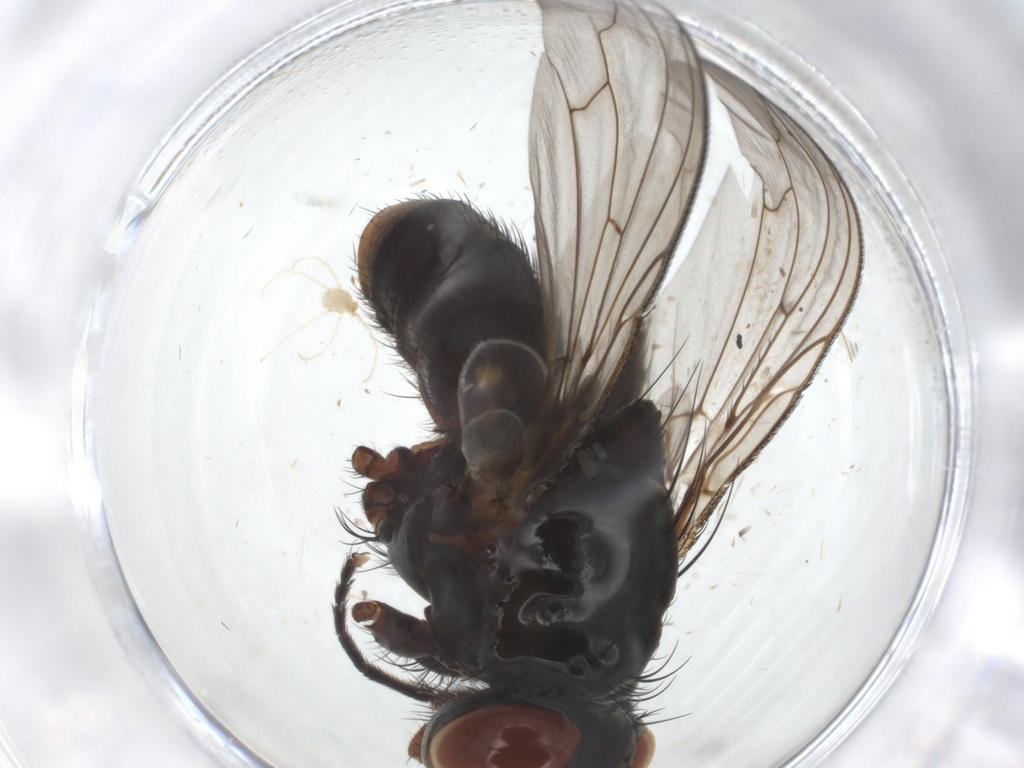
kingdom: Animalia
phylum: Arthropoda
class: Insecta
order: Diptera
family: Sarcophagidae
